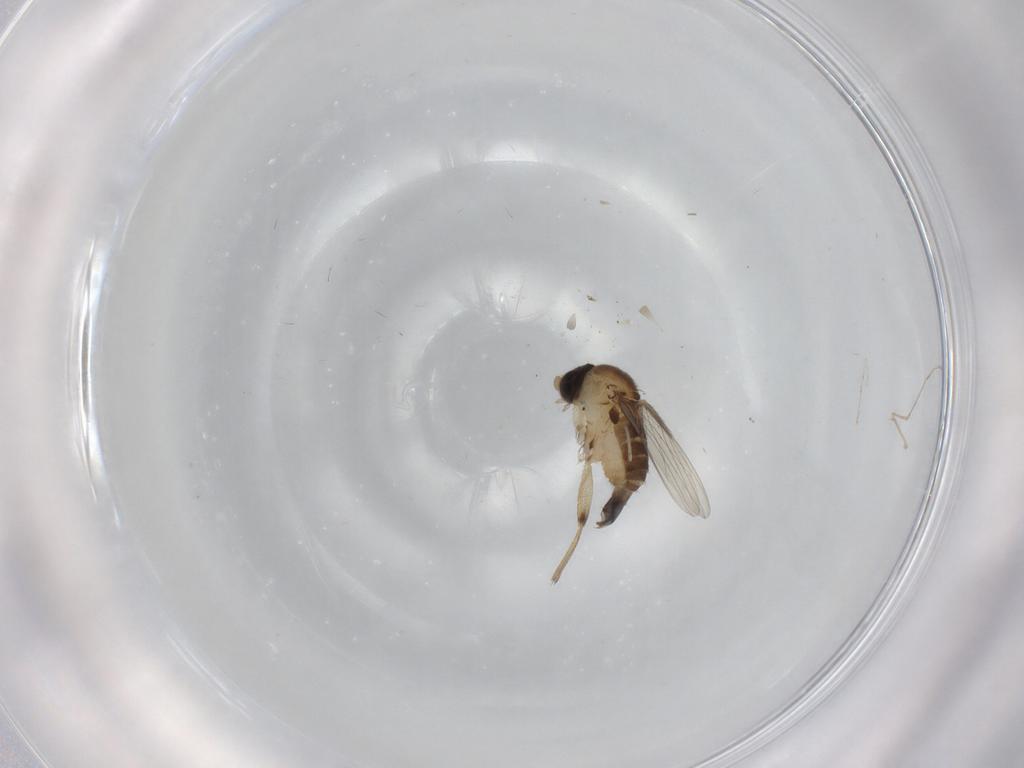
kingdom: Animalia
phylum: Arthropoda
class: Insecta
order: Diptera
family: Phoridae
